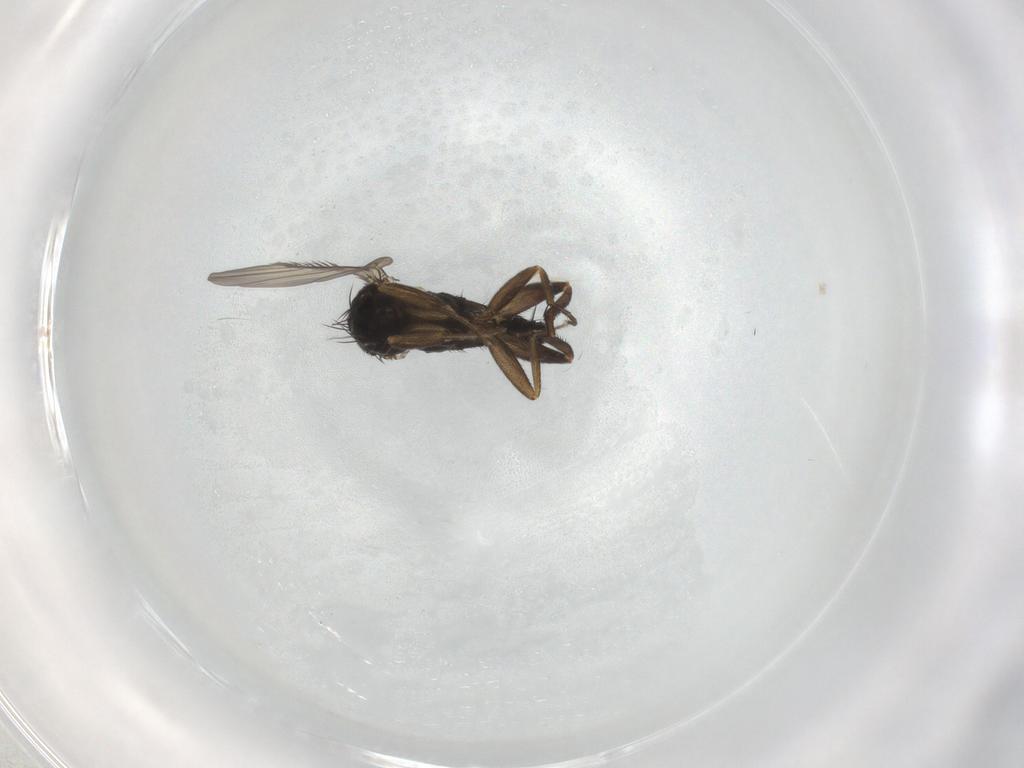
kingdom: Animalia
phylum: Arthropoda
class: Insecta
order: Diptera
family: Phoridae
